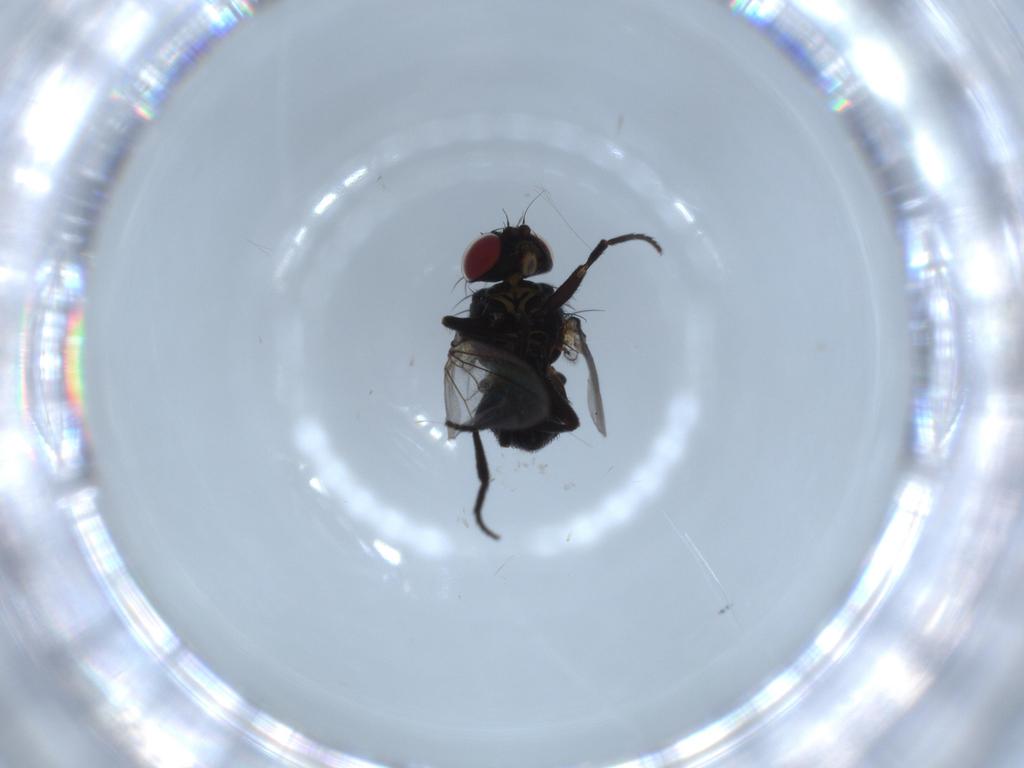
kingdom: Animalia
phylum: Arthropoda
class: Insecta
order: Diptera
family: Agromyzidae
